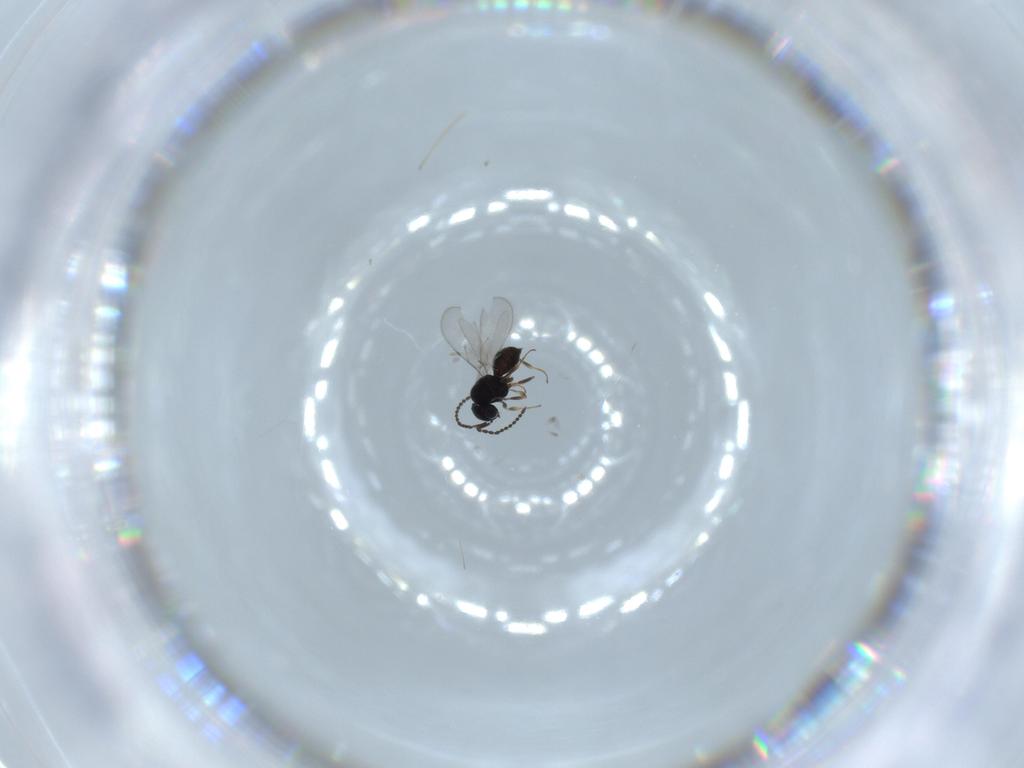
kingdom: Animalia
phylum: Arthropoda
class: Insecta
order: Hymenoptera
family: Scelionidae
